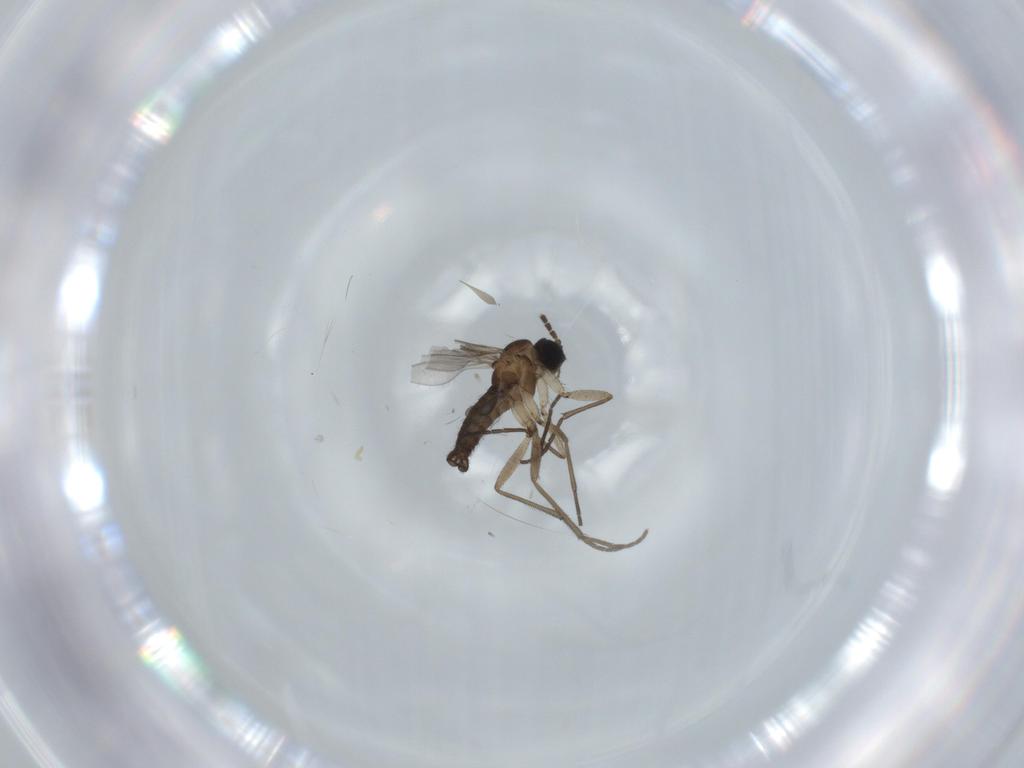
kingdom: Animalia
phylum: Arthropoda
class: Insecta
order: Diptera
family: Sciaridae
